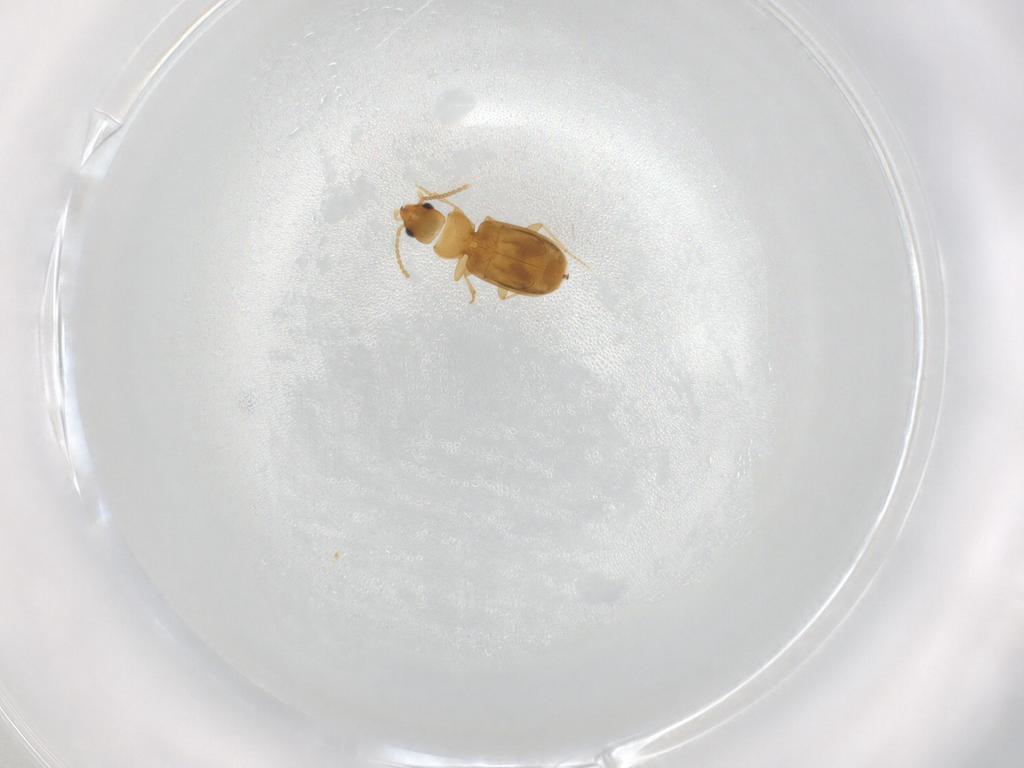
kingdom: Animalia
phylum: Arthropoda
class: Insecta
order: Coleoptera
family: Carabidae
